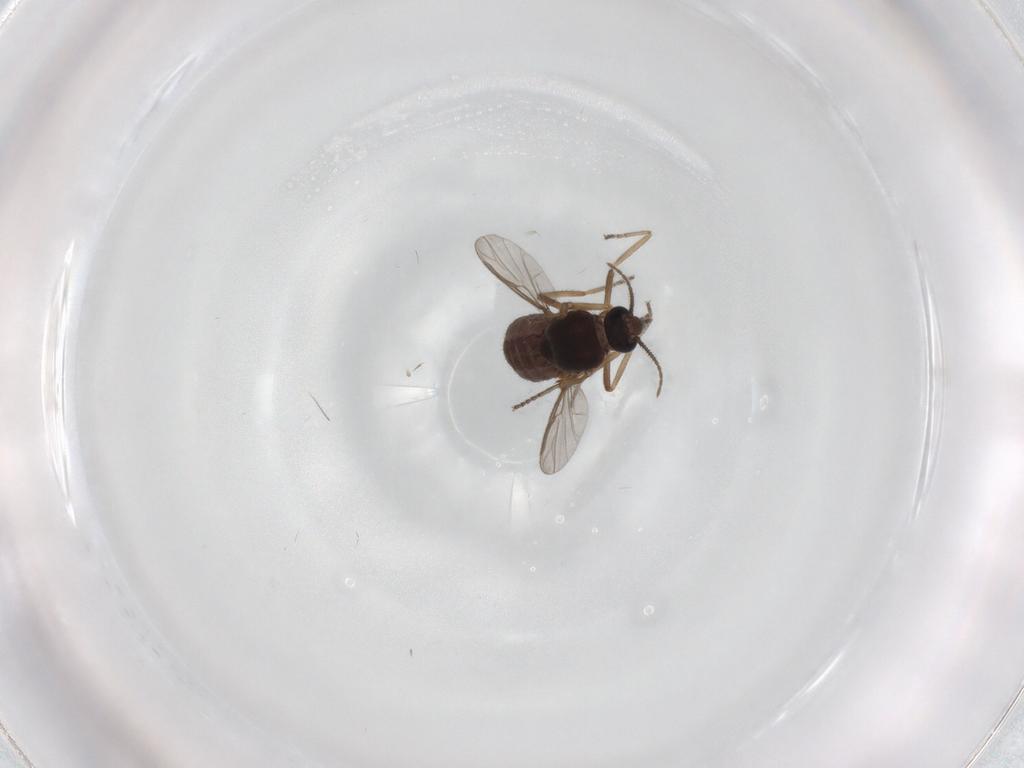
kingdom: Animalia
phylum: Arthropoda
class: Insecta
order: Diptera
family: Ceratopogonidae
